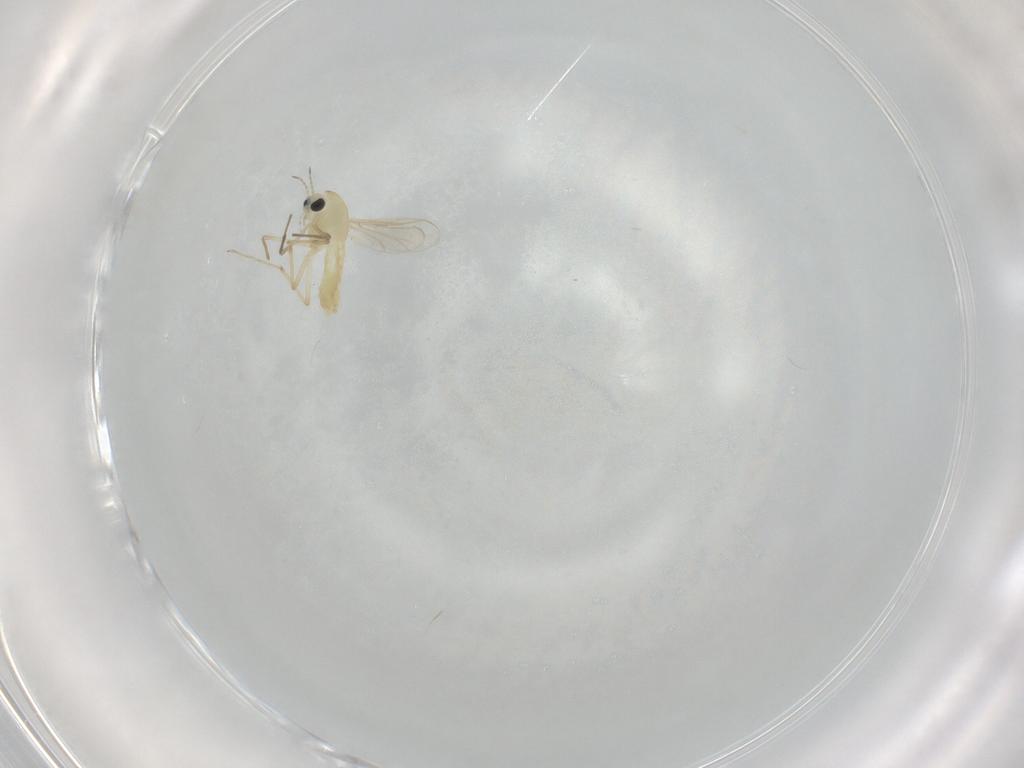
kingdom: Animalia
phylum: Arthropoda
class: Insecta
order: Diptera
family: Chironomidae
